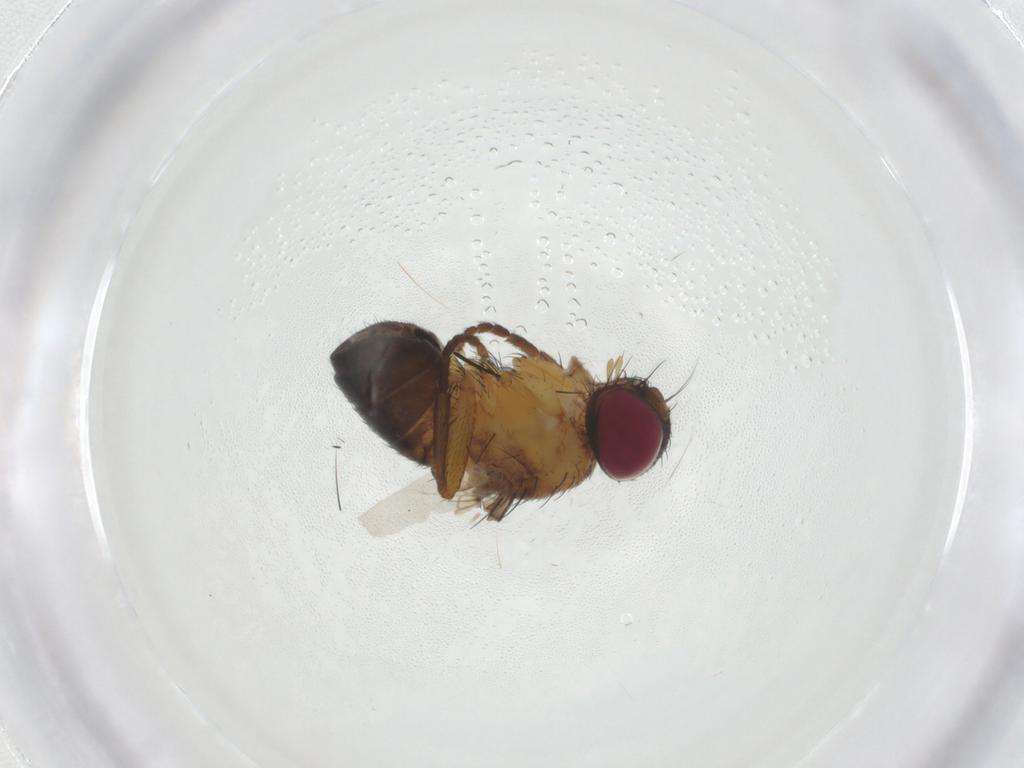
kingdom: Animalia
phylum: Arthropoda
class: Insecta
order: Diptera
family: Tachinidae
